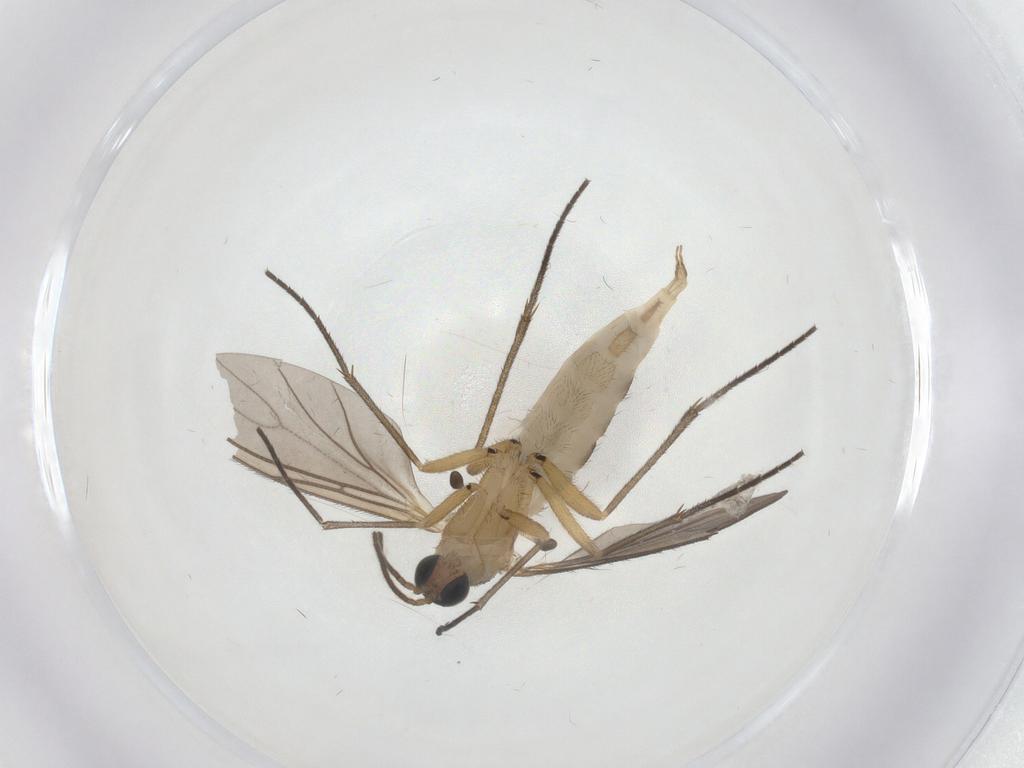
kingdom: Animalia
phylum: Arthropoda
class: Insecta
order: Diptera
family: Sciaridae
